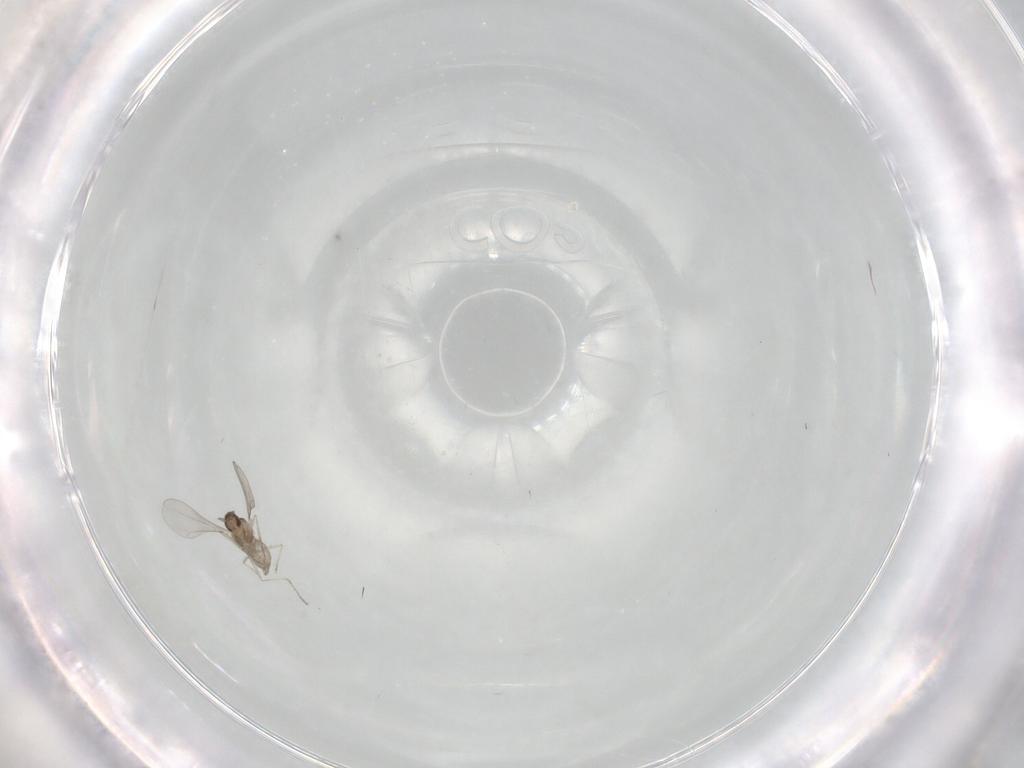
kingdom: Animalia
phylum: Arthropoda
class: Insecta
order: Diptera
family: Cecidomyiidae
